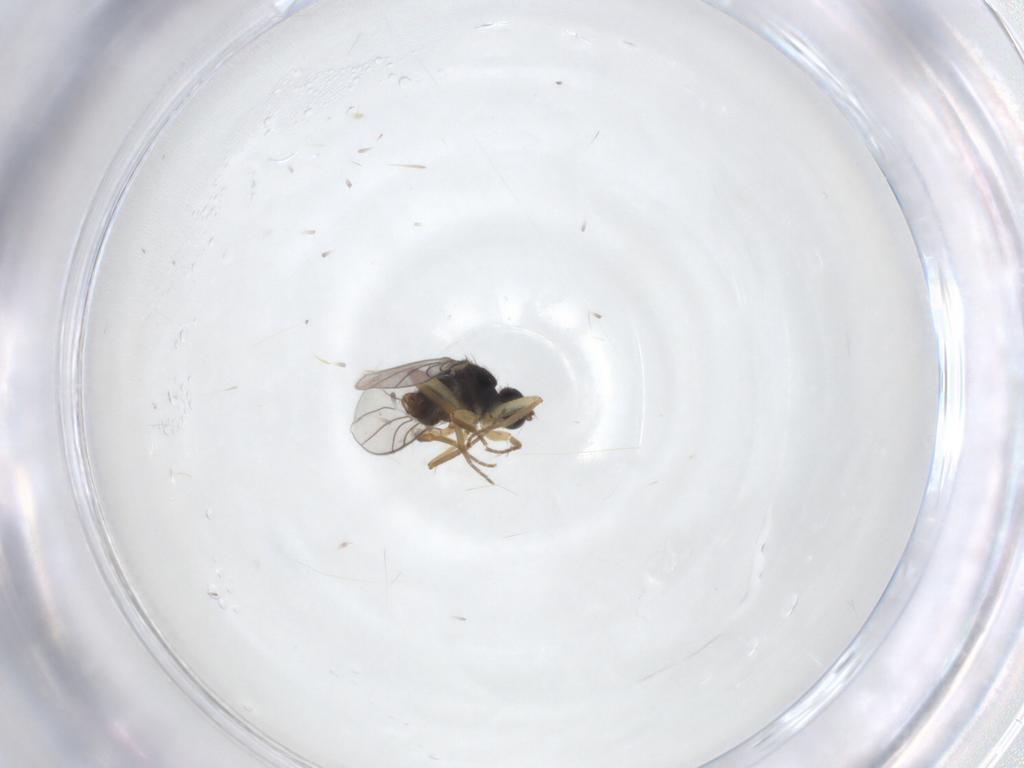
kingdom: Animalia
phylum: Arthropoda
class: Insecta
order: Diptera
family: Hybotidae
